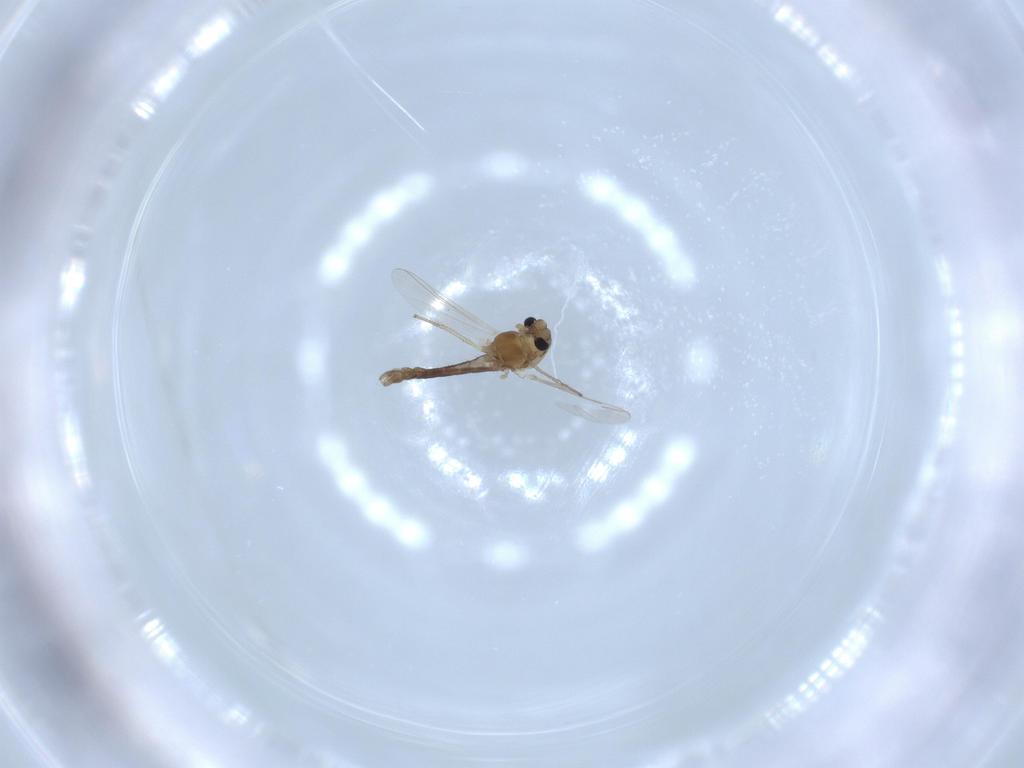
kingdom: Animalia
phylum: Arthropoda
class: Insecta
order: Diptera
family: Chironomidae
